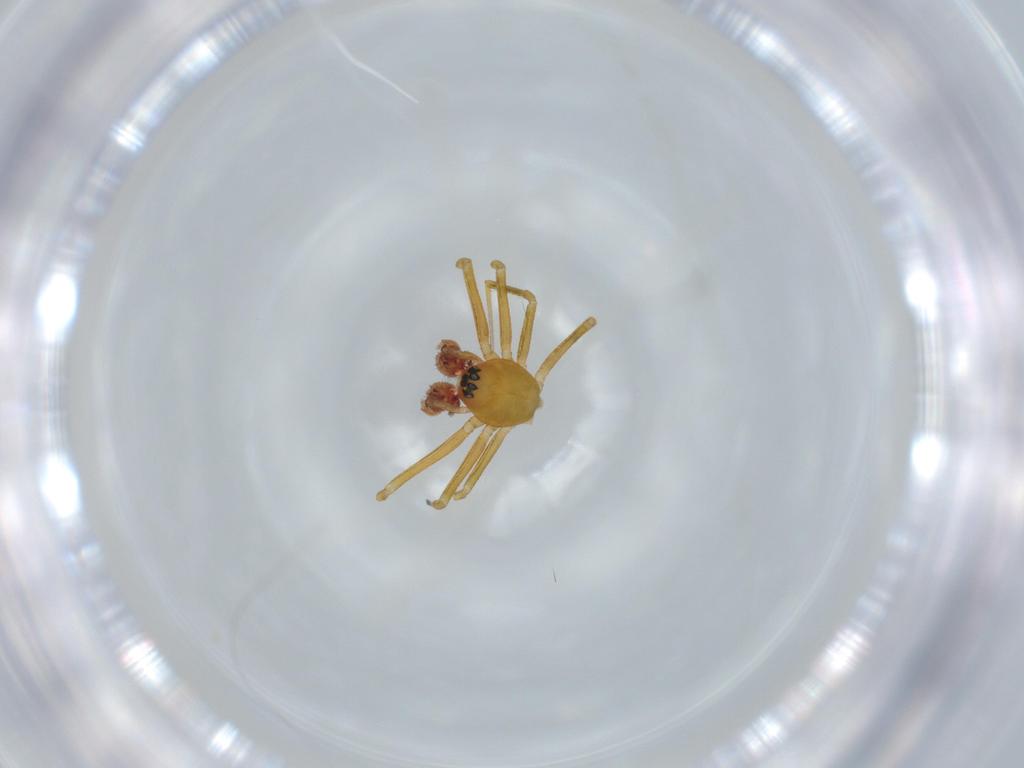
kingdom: Animalia
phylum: Arthropoda
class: Arachnida
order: Araneae
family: Linyphiidae
